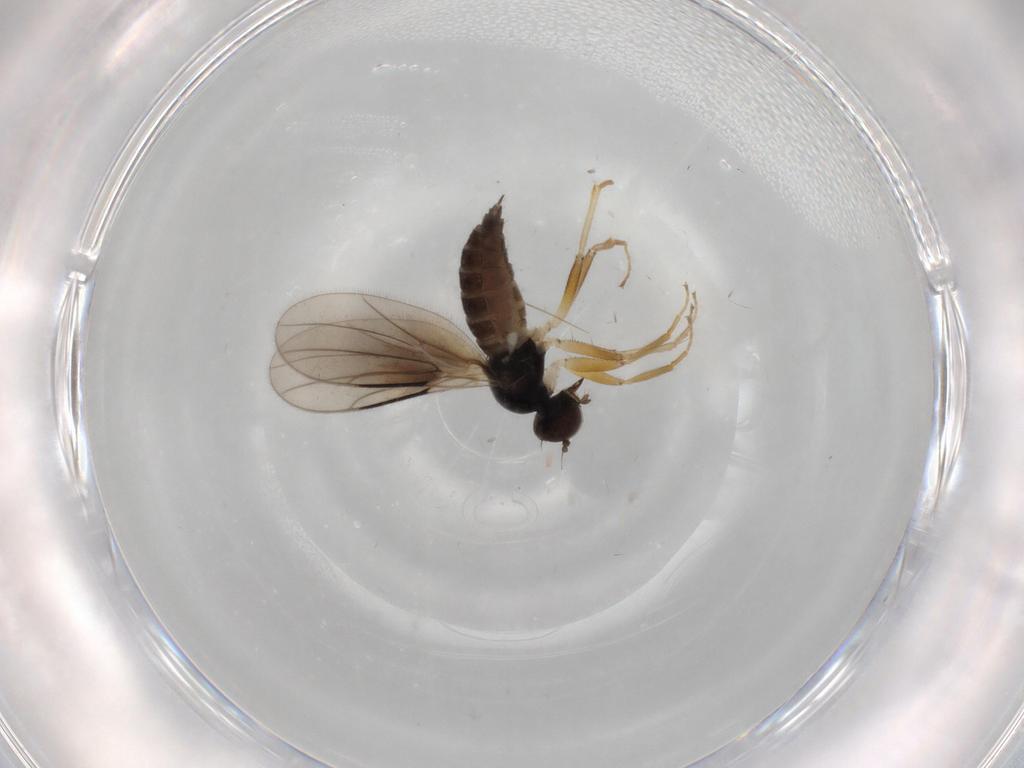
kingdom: Animalia
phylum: Arthropoda
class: Insecta
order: Diptera
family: Hybotidae
